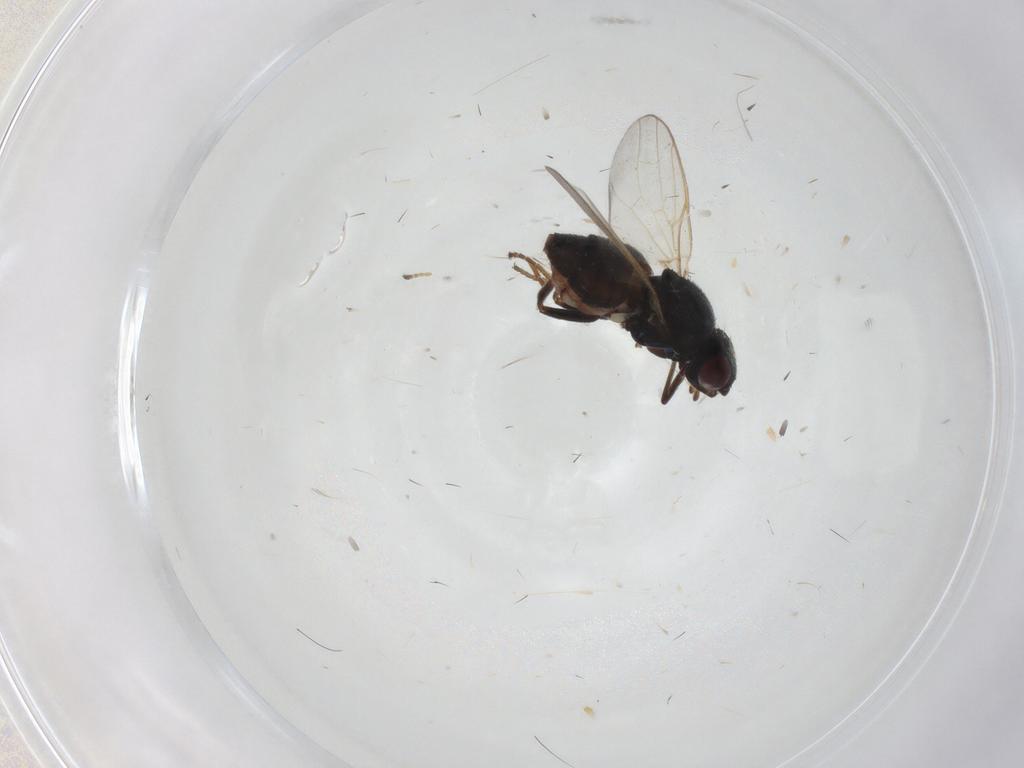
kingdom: Animalia
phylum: Arthropoda
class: Insecta
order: Diptera
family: Chloropidae
